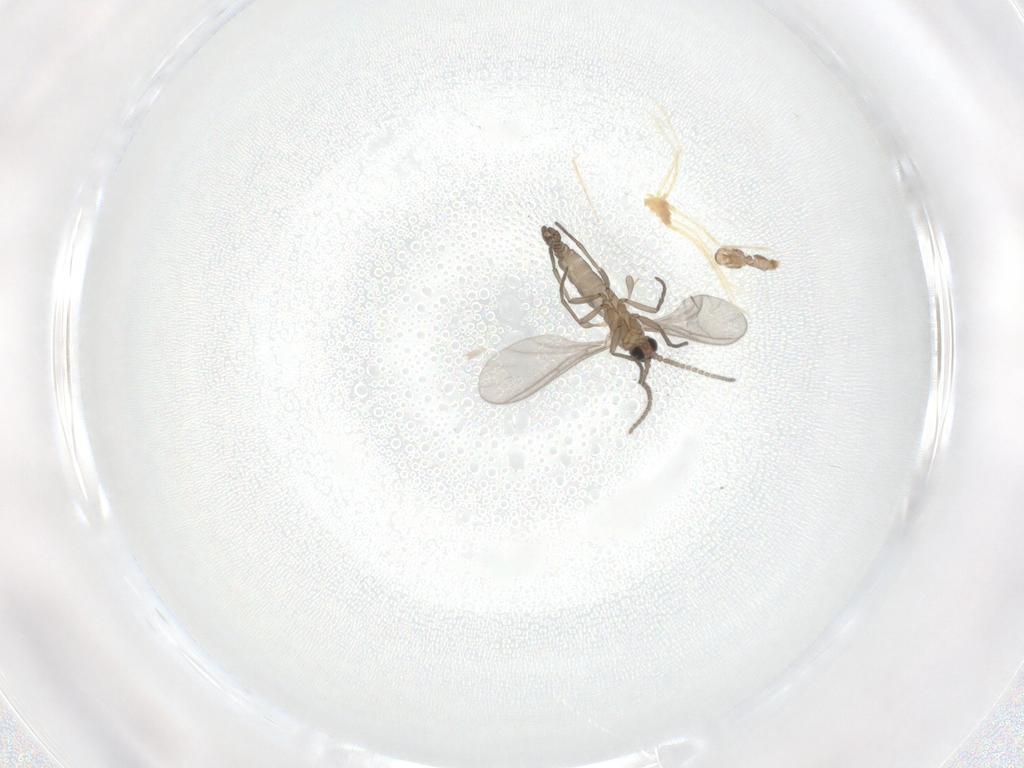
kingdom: Animalia
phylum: Arthropoda
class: Insecta
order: Diptera
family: Sciaridae
